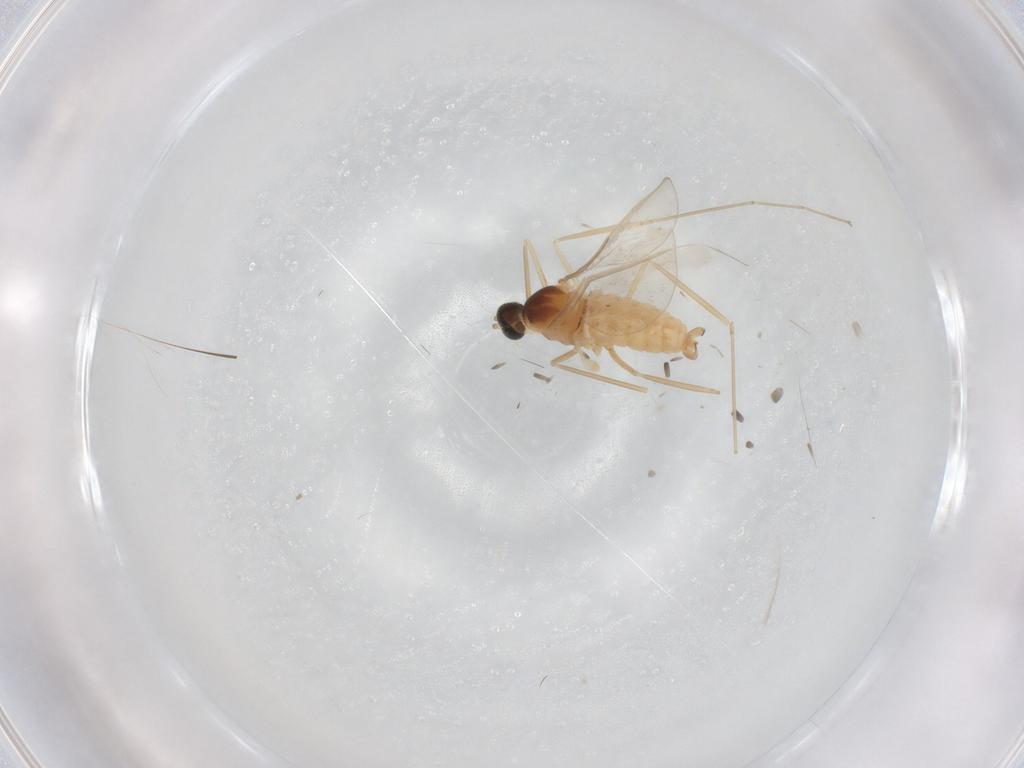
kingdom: Animalia
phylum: Arthropoda
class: Insecta
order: Diptera
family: Cecidomyiidae
